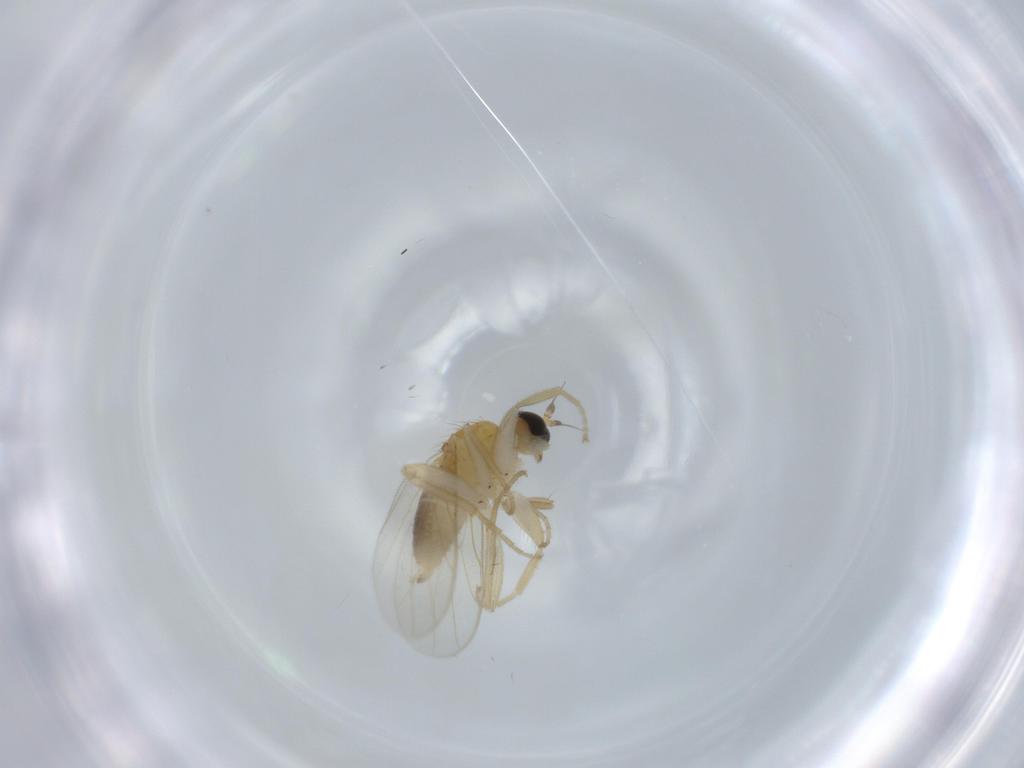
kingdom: Animalia
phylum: Arthropoda
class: Insecta
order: Diptera
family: Hybotidae
